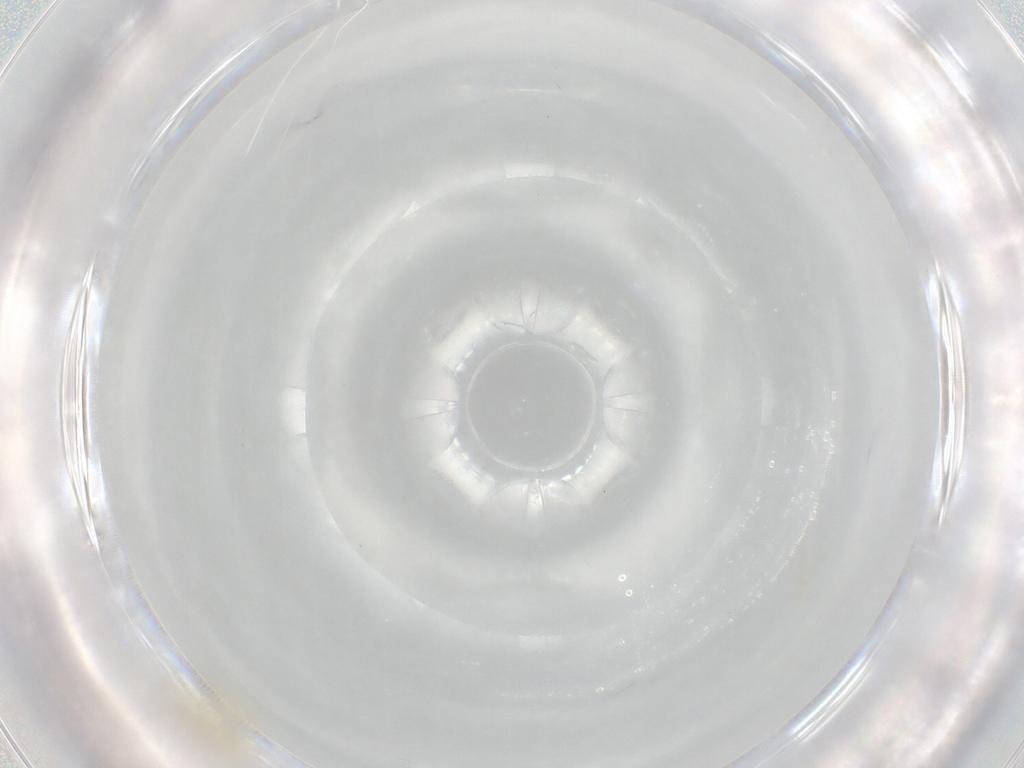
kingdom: Animalia
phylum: Arthropoda
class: Insecta
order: Diptera
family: Chironomidae
